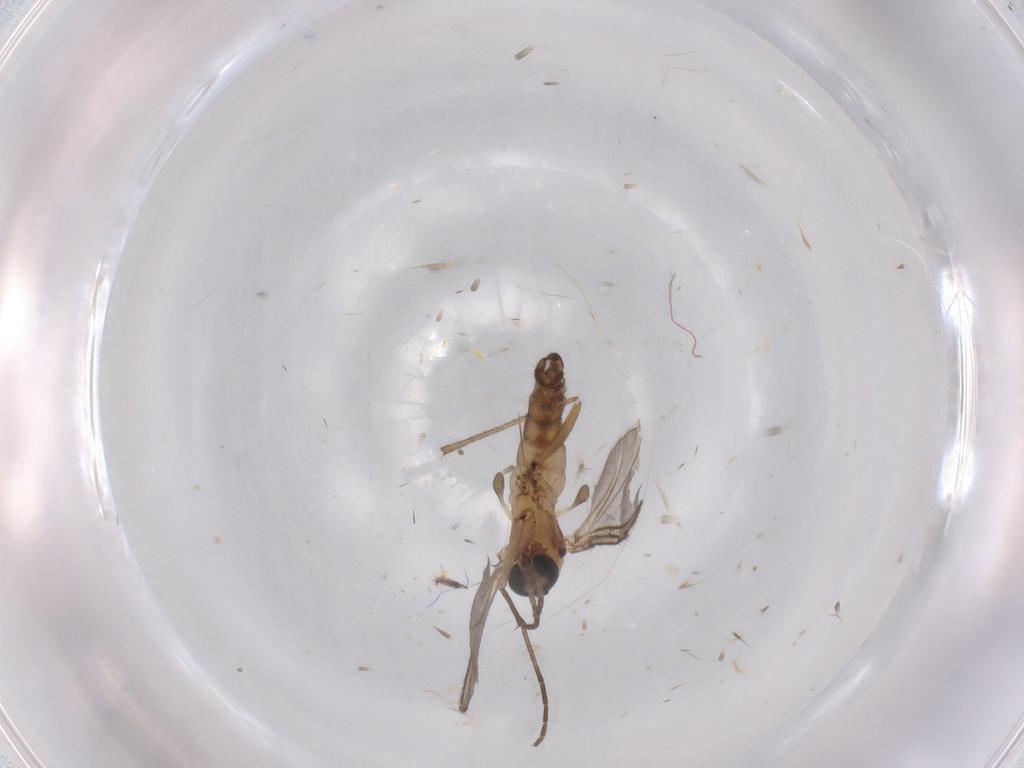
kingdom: Animalia
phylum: Arthropoda
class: Insecta
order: Diptera
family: Sciaridae
